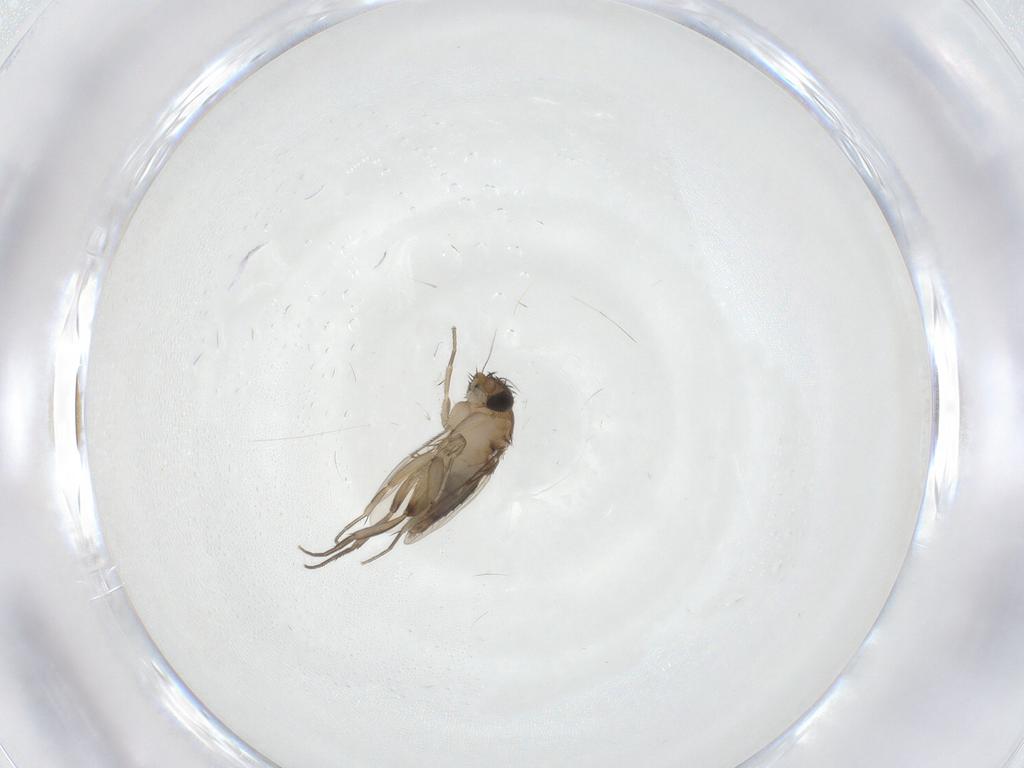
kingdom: Animalia
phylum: Arthropoda
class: Insecta
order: Diptera
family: Phoridae
